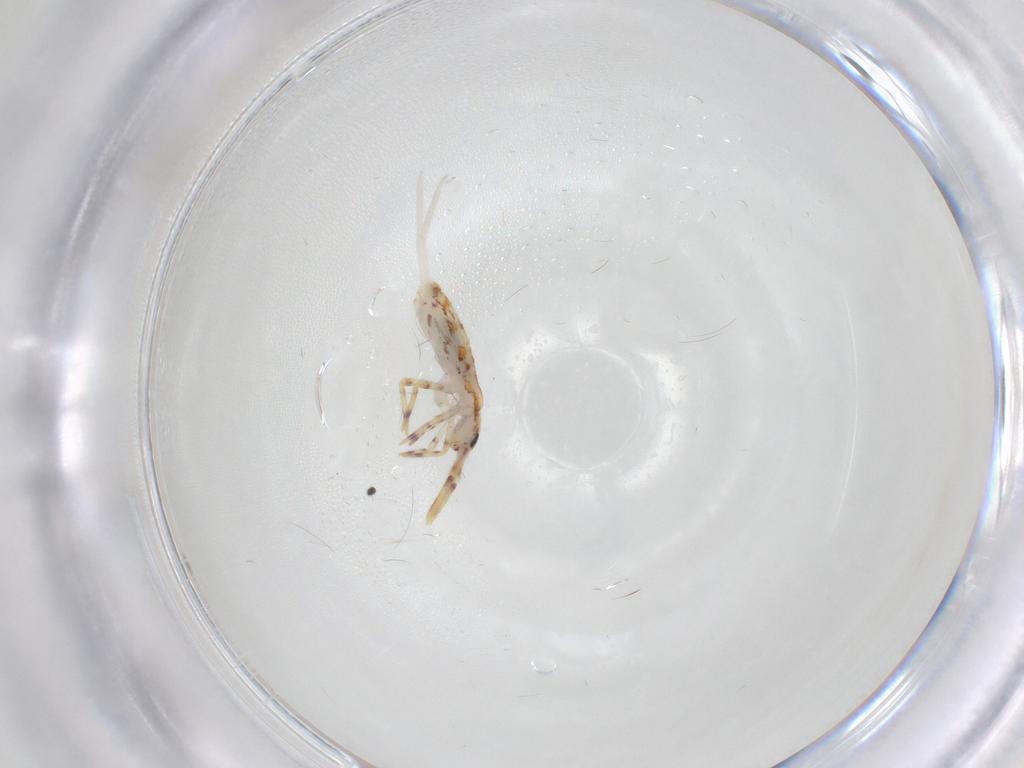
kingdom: Animalia
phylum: Arthropoda
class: Collembola
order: Entomobryomorpha
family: Entomobryidae
